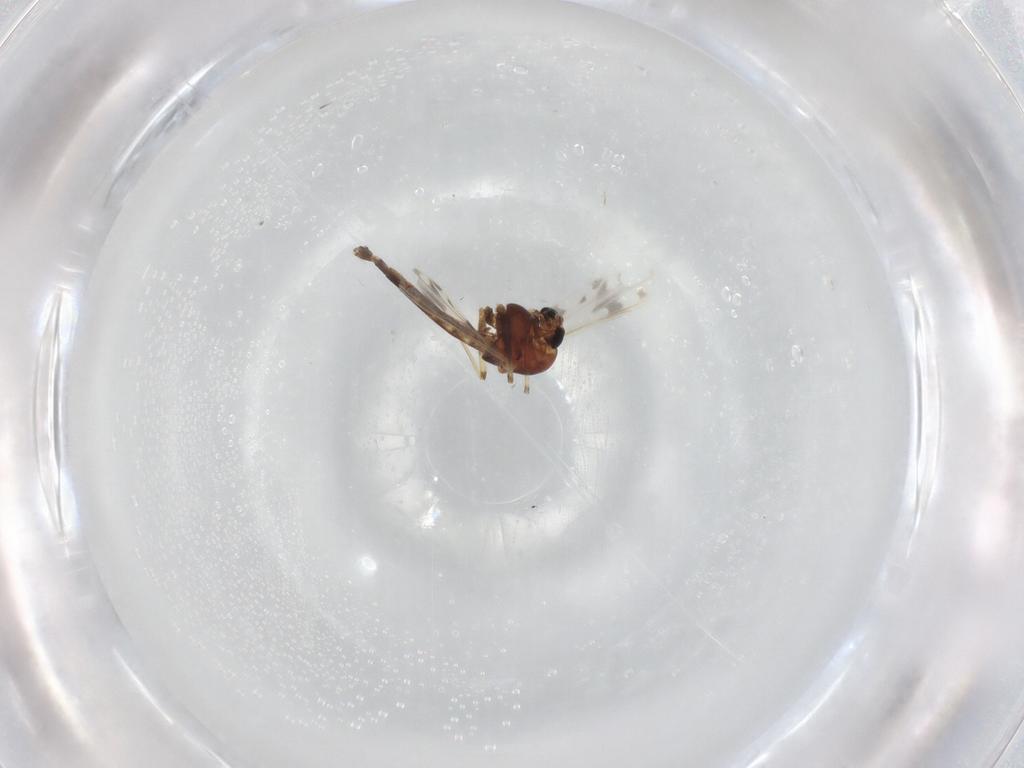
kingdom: Animalia
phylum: Arthropoda
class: Insecta
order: Diptera
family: Chironomidae
